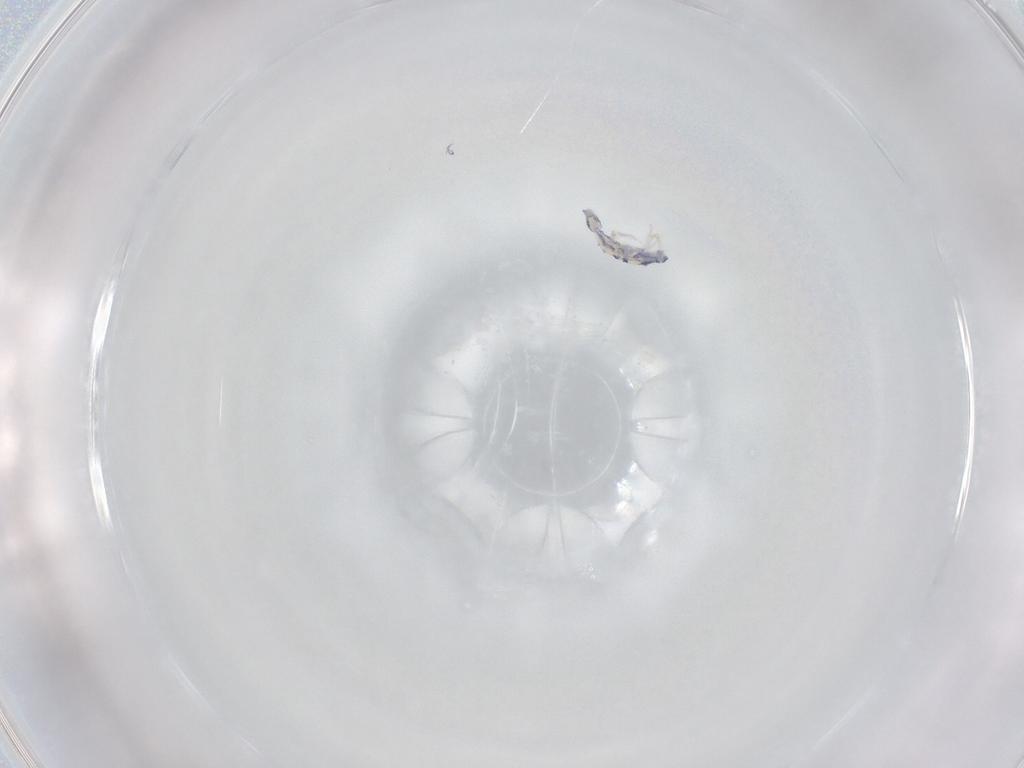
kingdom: Animalia
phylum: Arthropoda
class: Collembola
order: Entomobryomorpha
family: Entomobryidae
